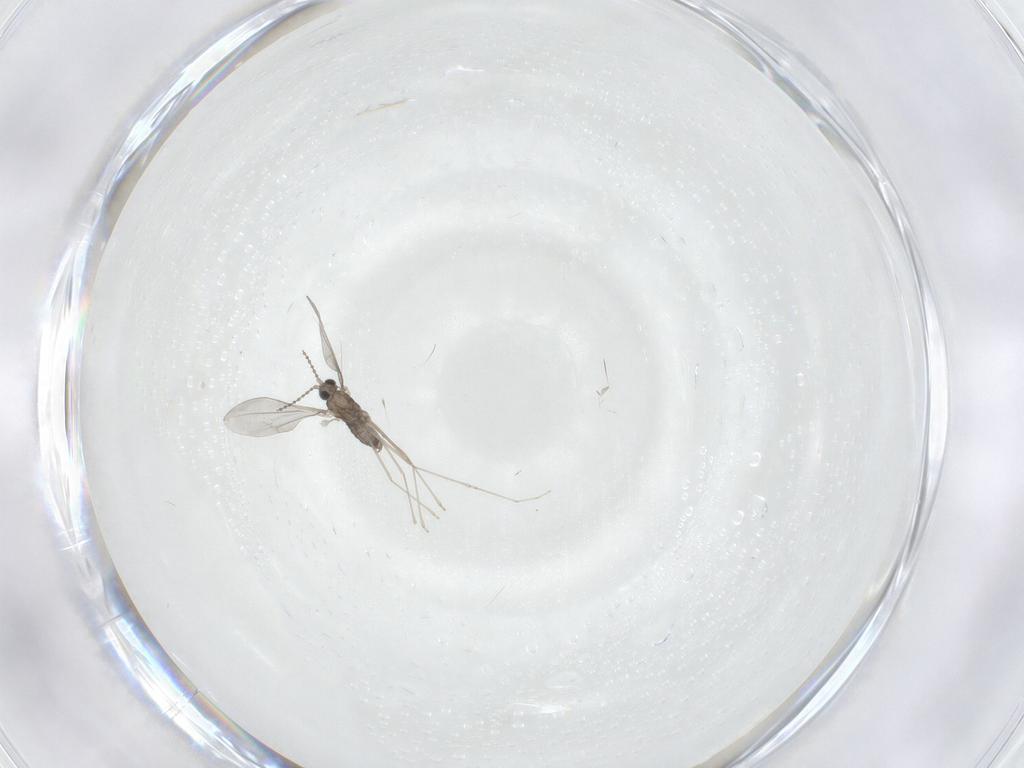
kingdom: Animalia
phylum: Arthropoda
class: Insecta
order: Diptera
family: Cecidomyiidae
